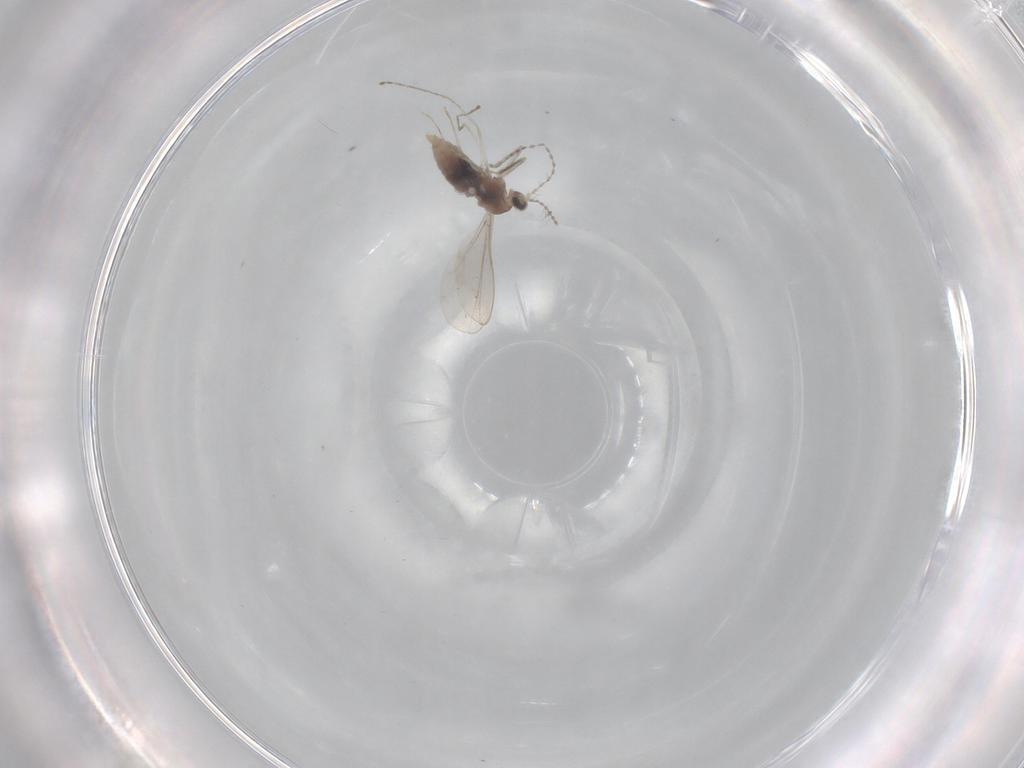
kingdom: Animalia
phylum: Arthropoda
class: Insecta
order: Diptera
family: Cecidomyiidae
